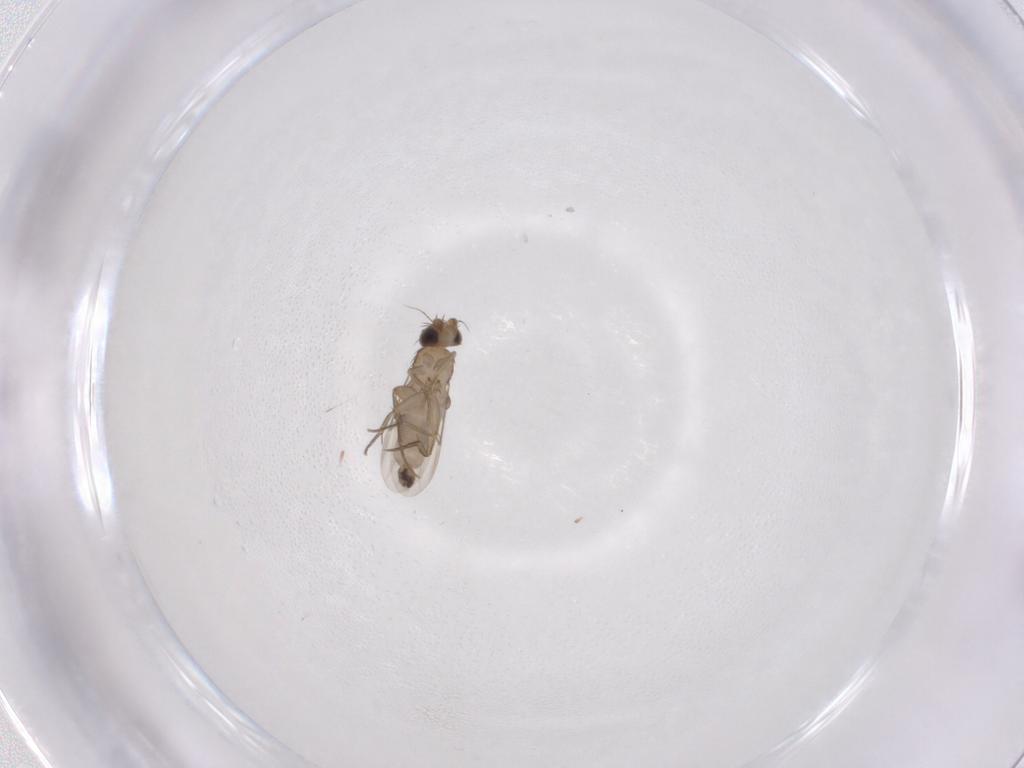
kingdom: Animalia
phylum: Arthropoda
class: Insecta
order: Diptera
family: Phoridae
